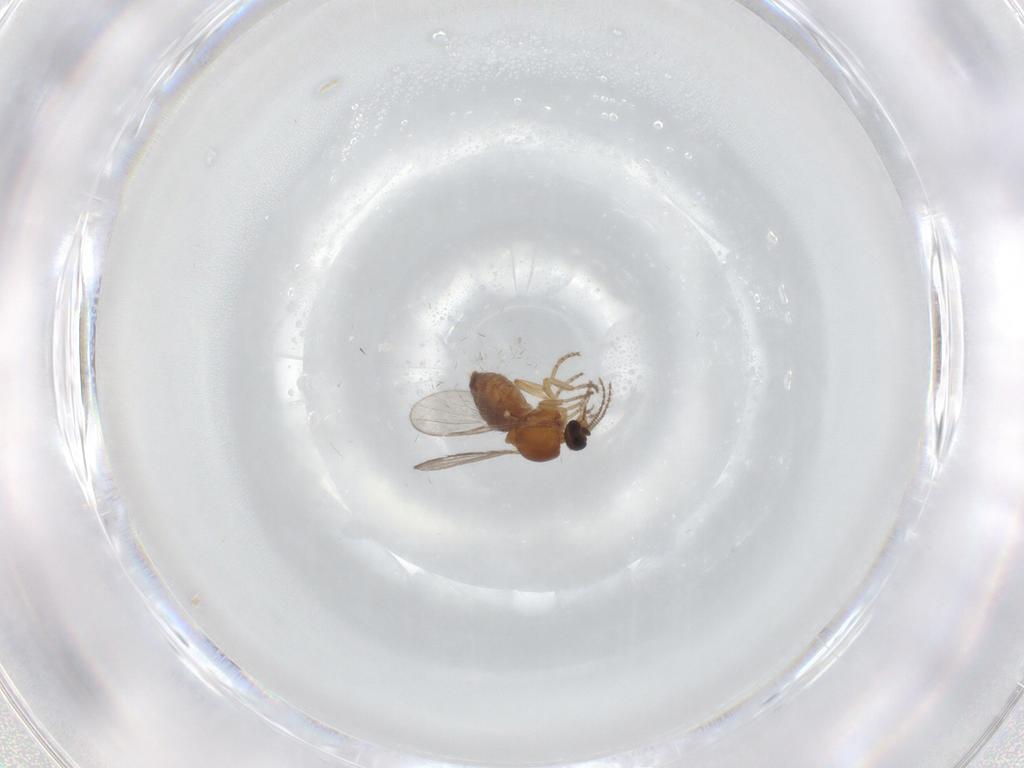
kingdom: Animalia
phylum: Arthropoda
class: Insecta
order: Diptera
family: Ceratopogonidae
